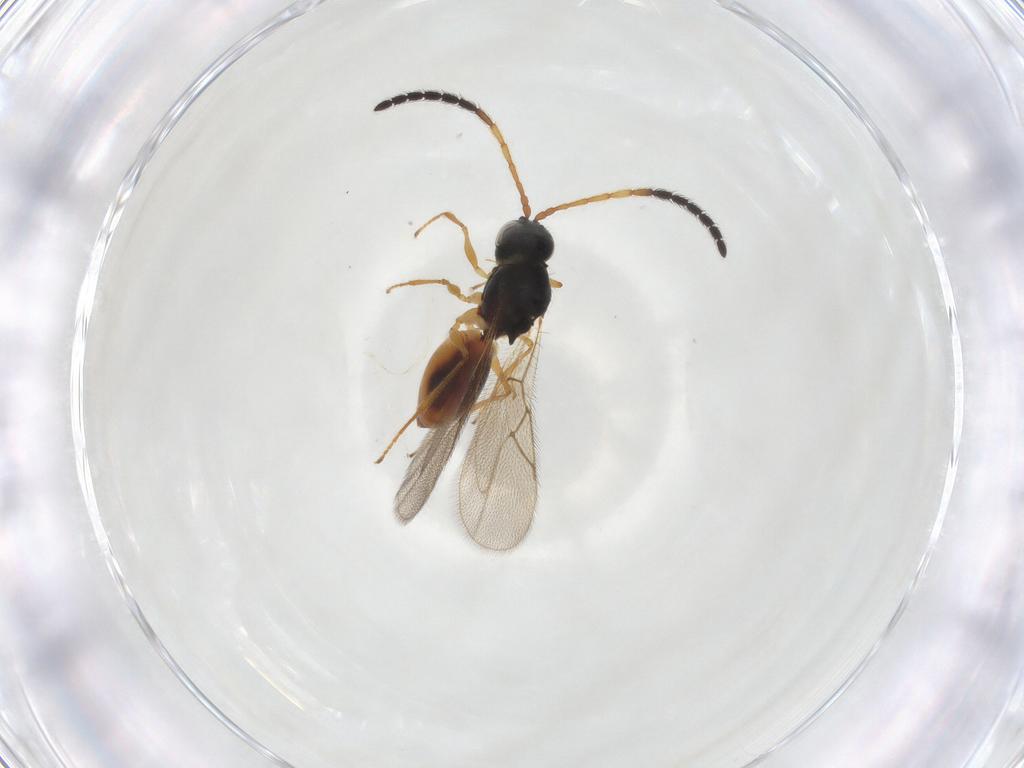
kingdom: Animalia
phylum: Arthropoda
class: Insecta
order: Hymenoptera
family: Figitidae
